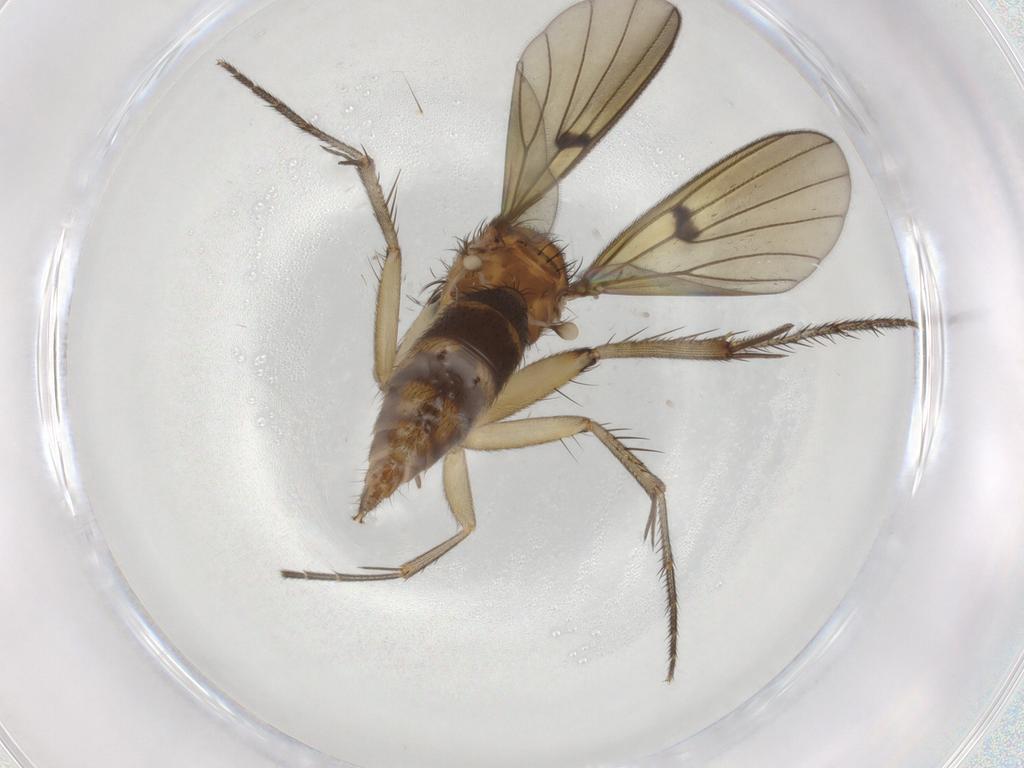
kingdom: Animalia
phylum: Arthropoda
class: Insecta
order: Diptera
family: Mycetophilidae
